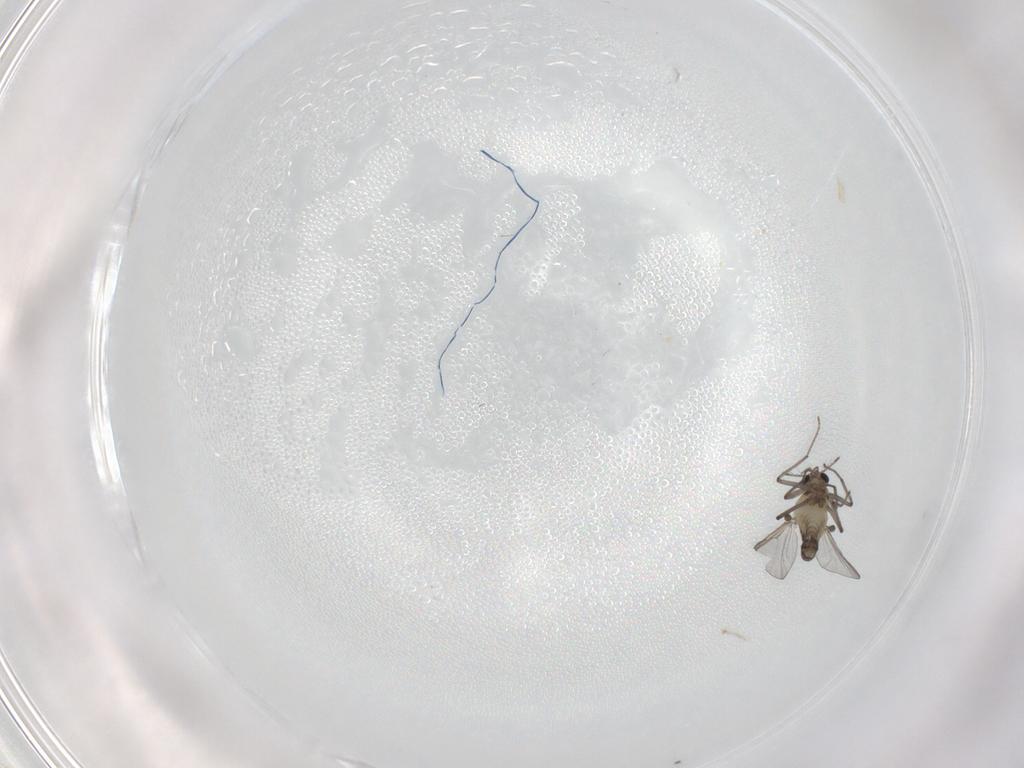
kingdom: Animalia
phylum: Arthropoda
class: Insecta
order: Diptera
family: Chironomidae
